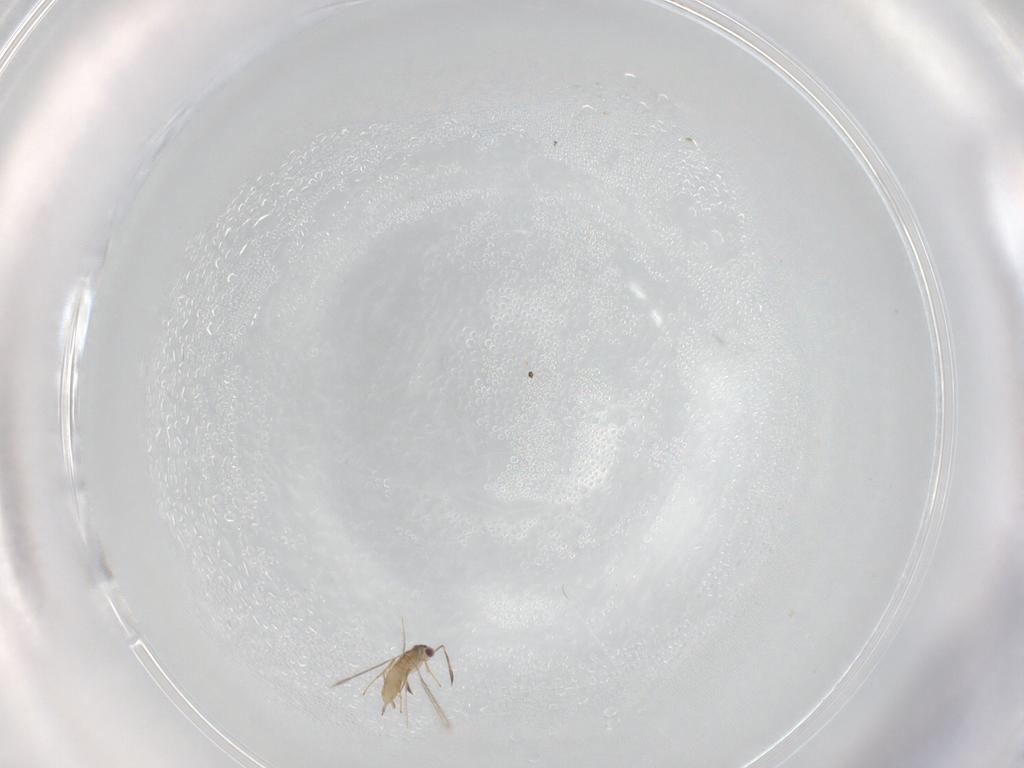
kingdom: Animalia
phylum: Arthropoda
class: Insecta
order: Hymenoptera
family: Mymaridae
